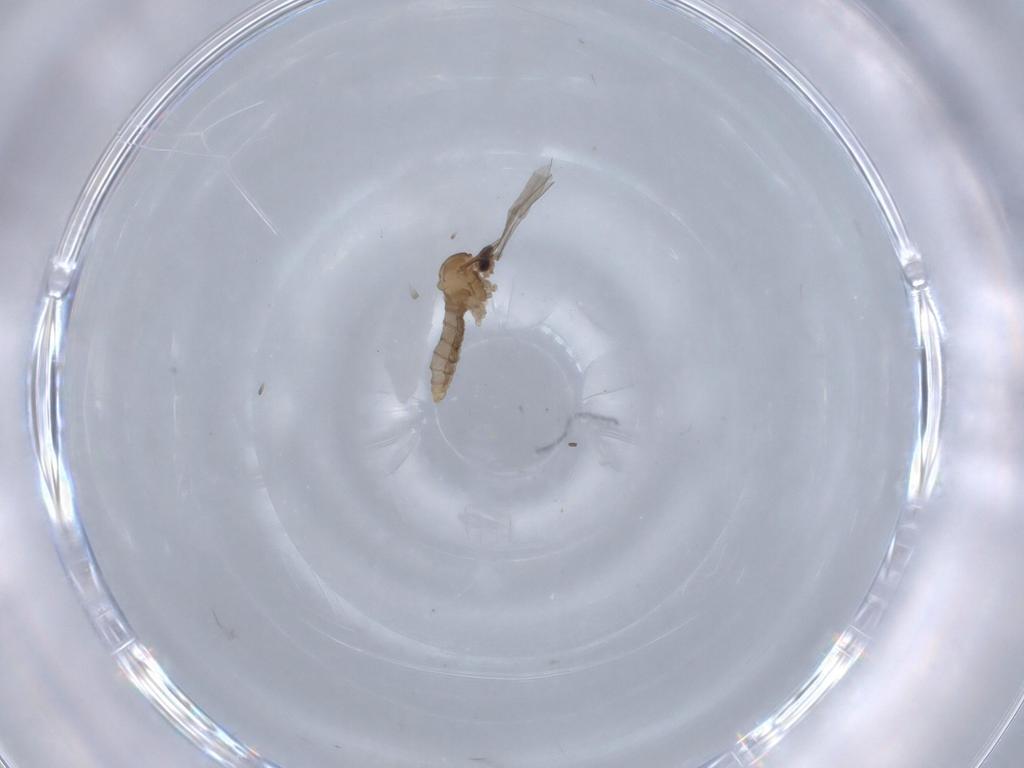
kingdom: Animalia
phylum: Arthropoda
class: Insecta
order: Diptera
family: Cecidomyiidae
